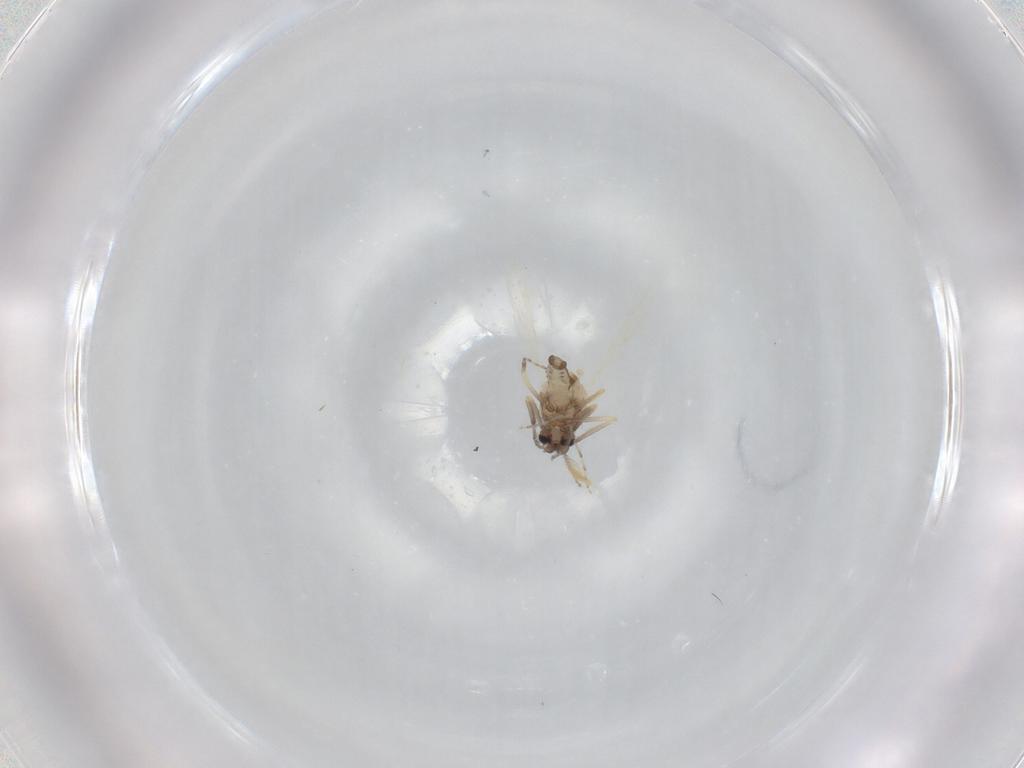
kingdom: Animalia
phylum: Arthropoda
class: Insecta
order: Diptera
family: Ceratopogonidae
